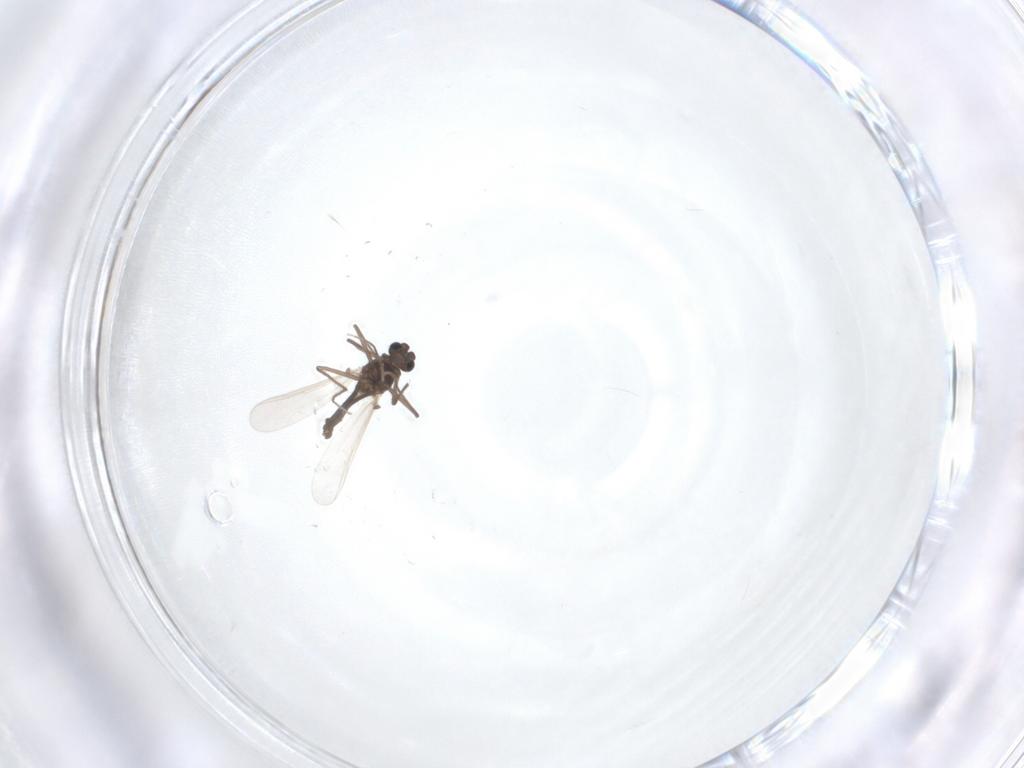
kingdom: Animalia
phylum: Arthropoda
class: Insecta
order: Diptera
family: Chironomidae
